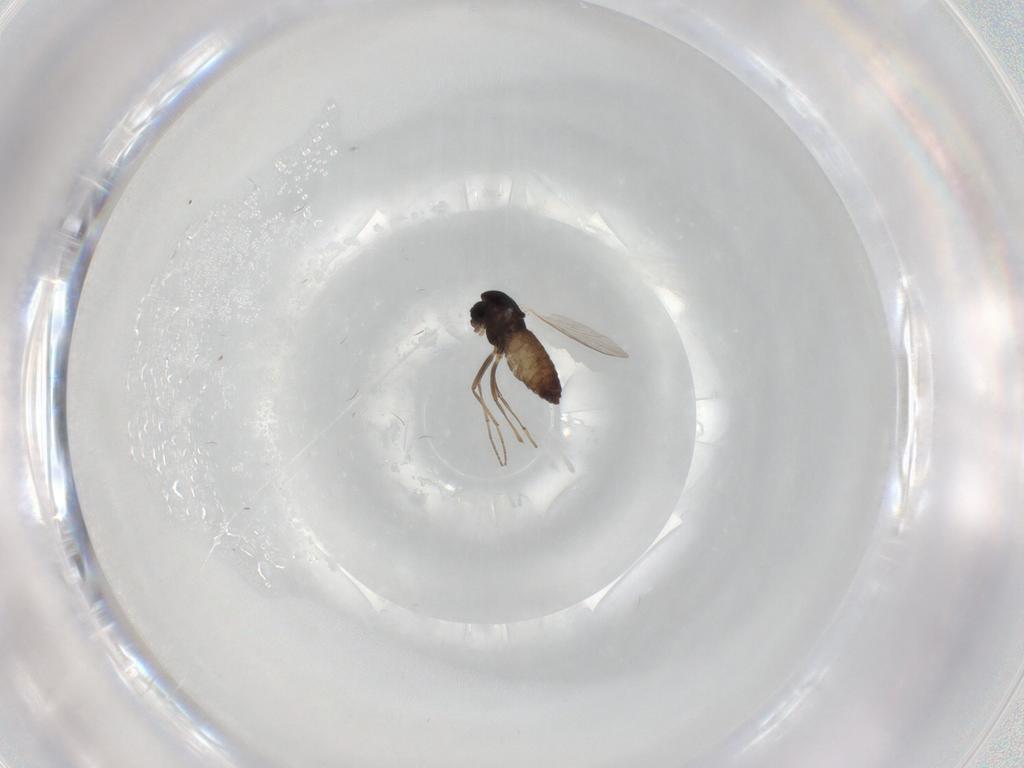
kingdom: Animalia
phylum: Arthropoda
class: Insecta
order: Diptera
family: Chironomidae
